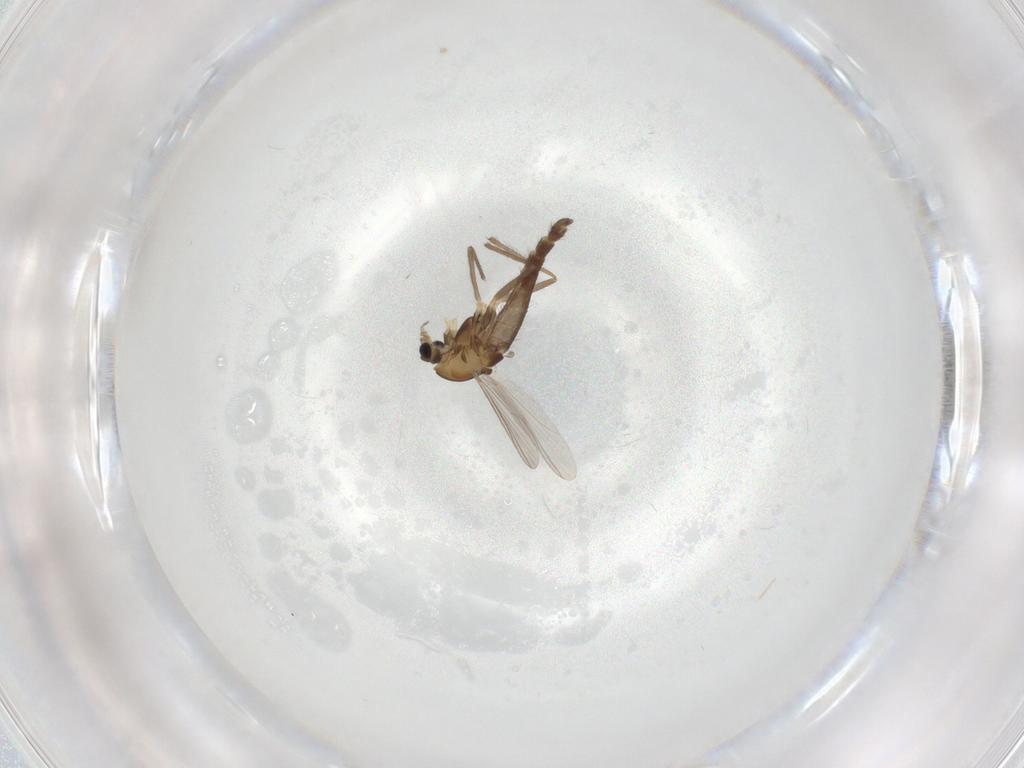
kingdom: Animalia
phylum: Arthropoda
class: Insecta
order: Diptera
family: Chironomidae
